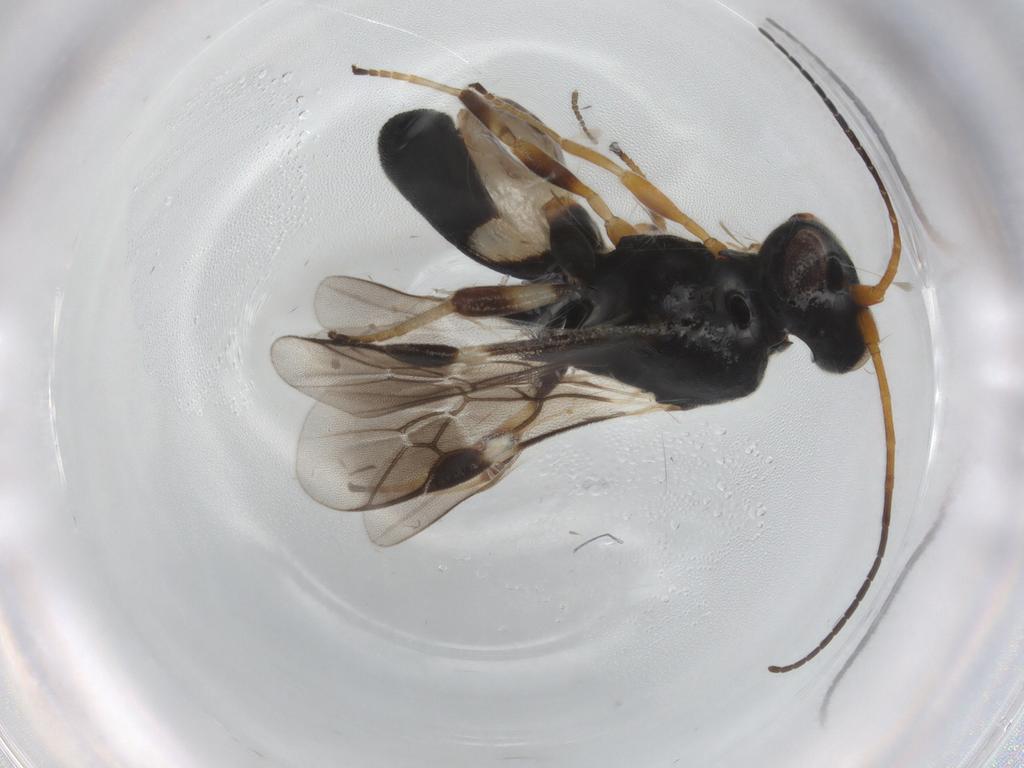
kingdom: Animalia
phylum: Arthropoda
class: Insecta
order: Hymenoptera
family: Braconidae
